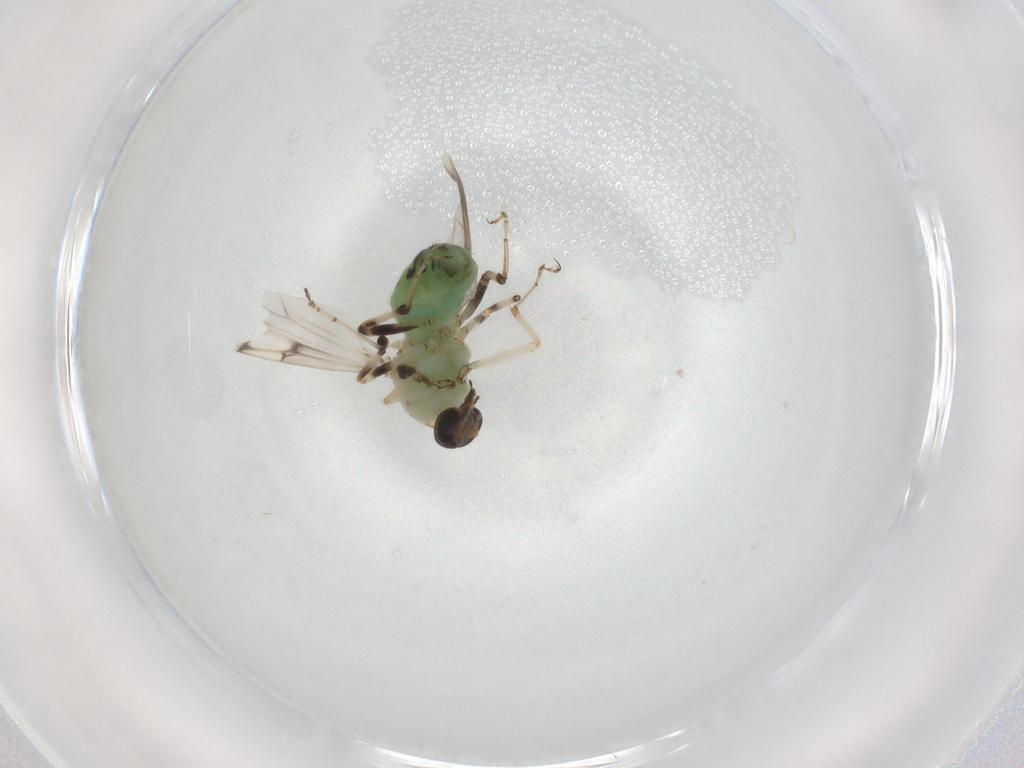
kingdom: Animalia
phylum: Arthropoda
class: Insecta
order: Diptera
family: Ceratopogonidae
